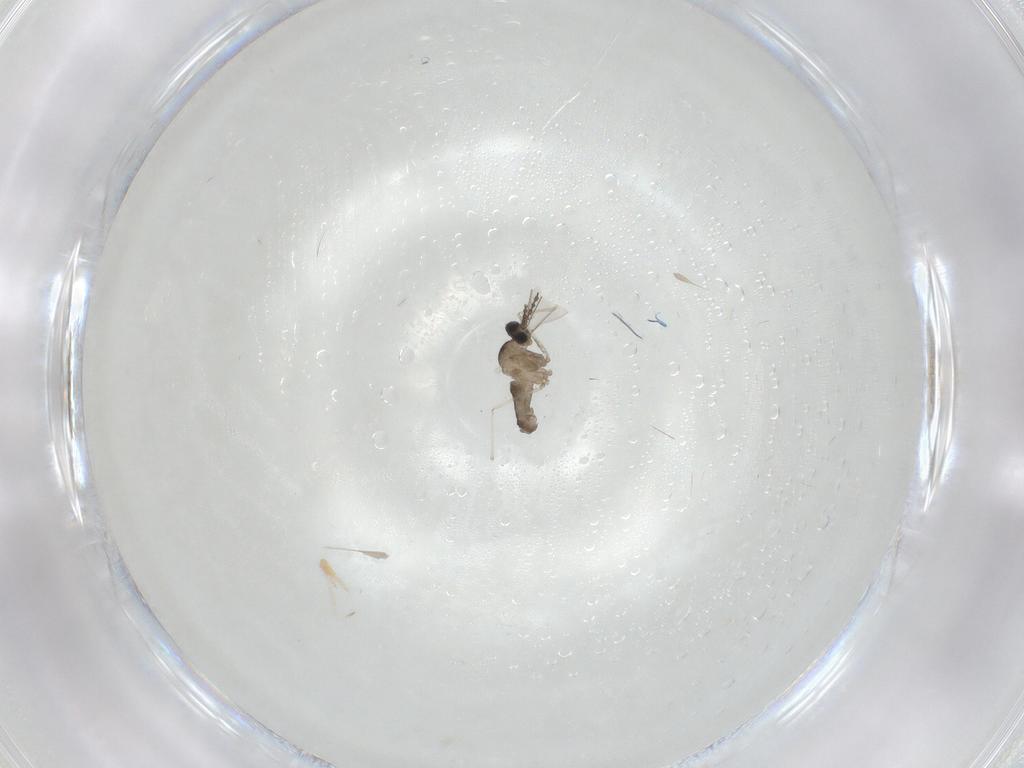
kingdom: Animalia
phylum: Arthropoda
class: Insecta
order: Diptera
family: Cecidomyiidae
